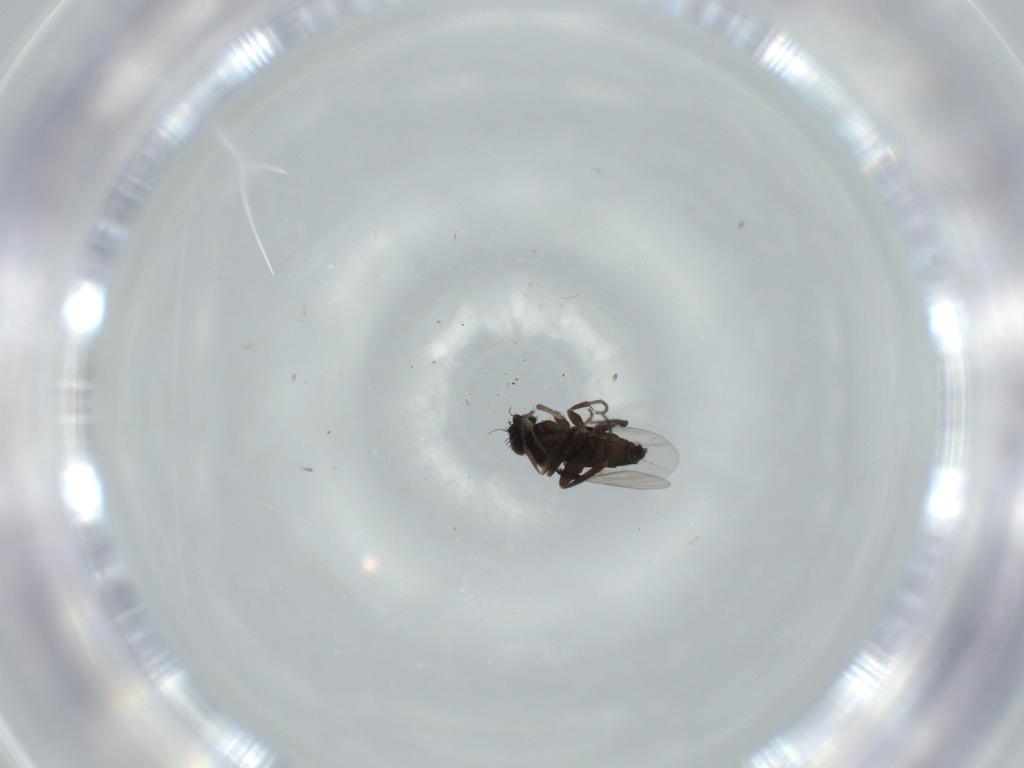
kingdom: Animalia
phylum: Arthropoda
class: Insecta
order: Diptera
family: Phoridae
